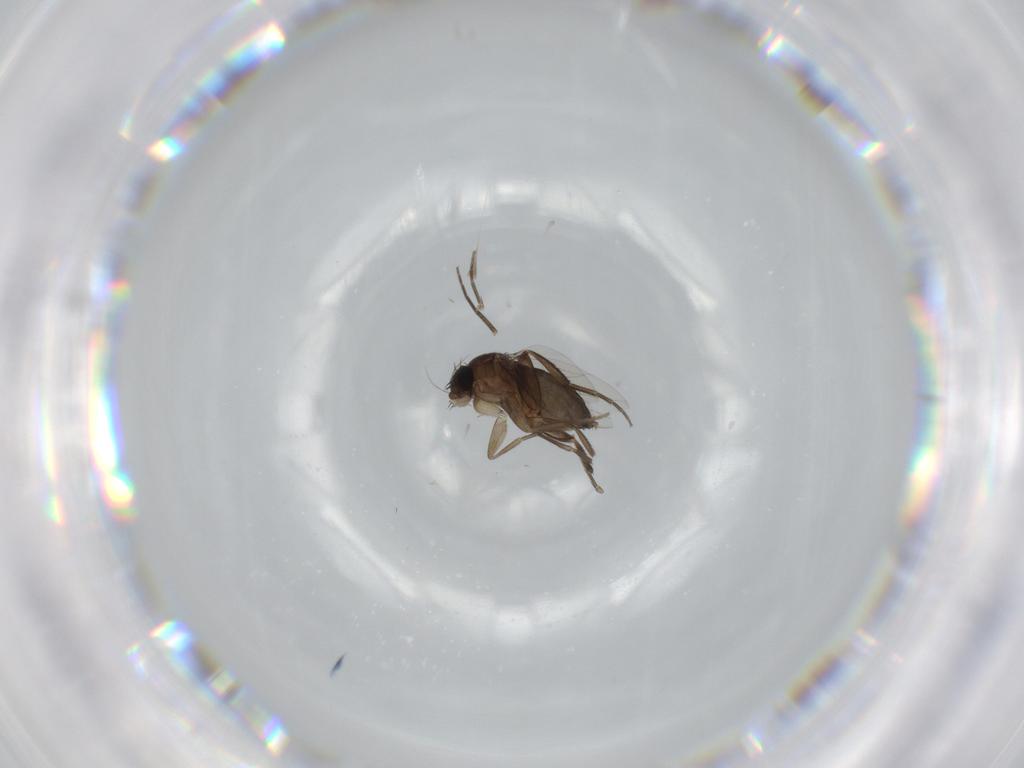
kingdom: Animalia
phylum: Arthropoda
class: Insecta
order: Diptera
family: Phoridae
